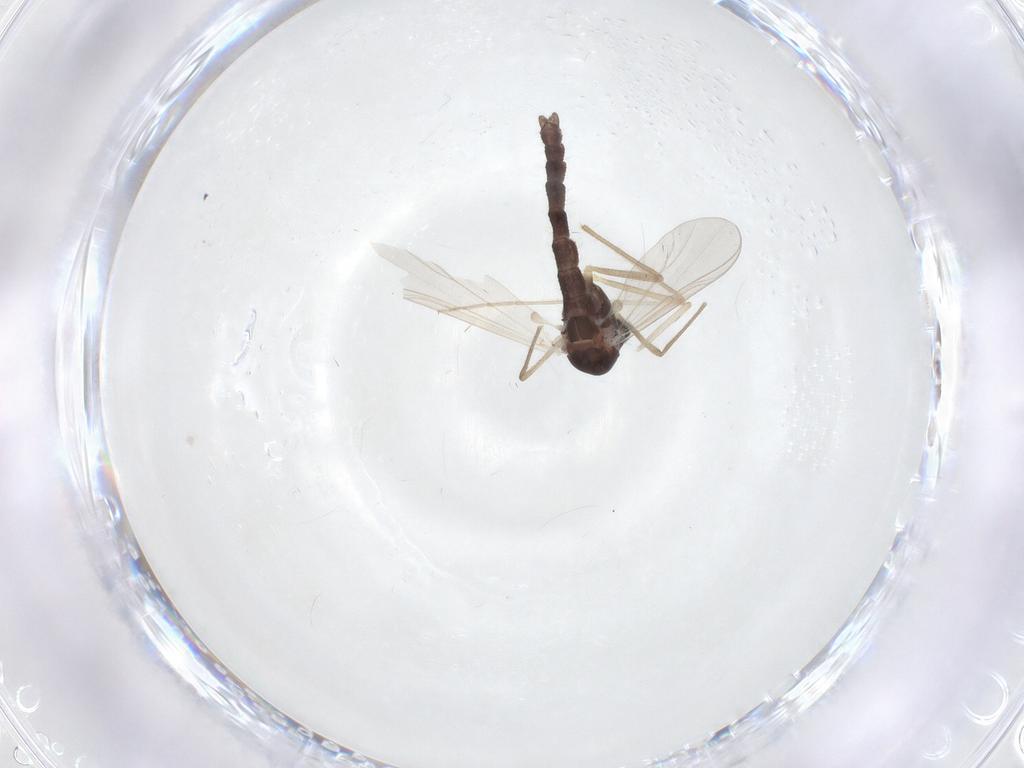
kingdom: Animalia
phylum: Arthropoda
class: Insecta
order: Diptera
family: Chironomidae
